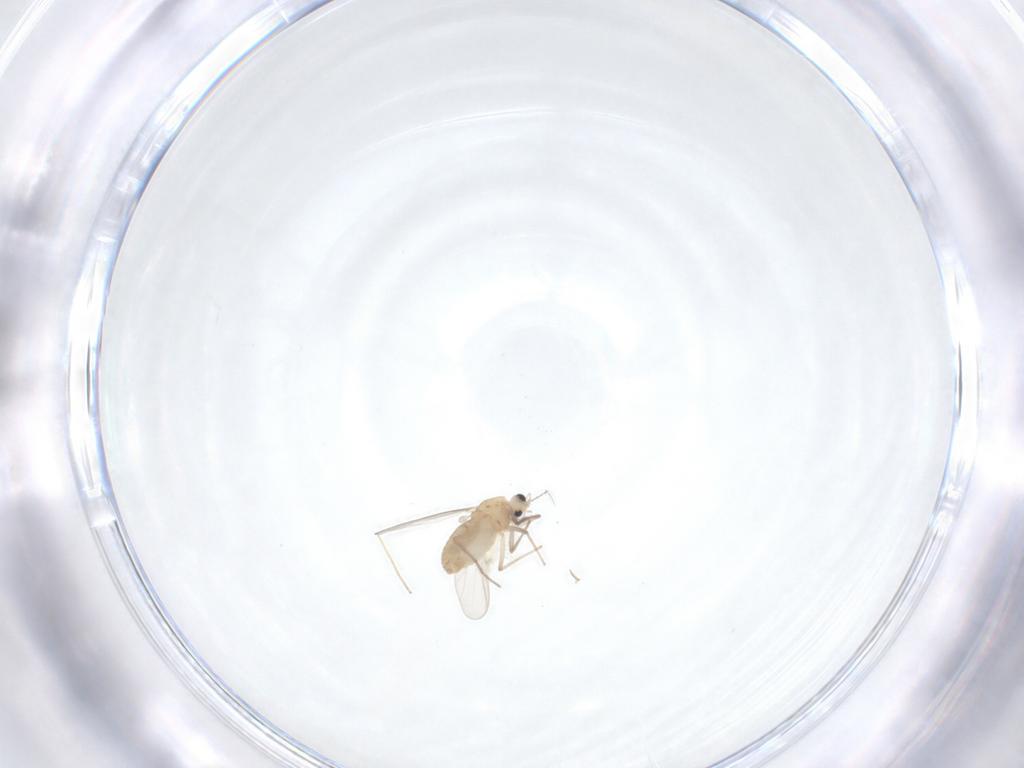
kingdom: Animalia
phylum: Arthropoda
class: Insecta
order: Diptera
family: Chironomidae
